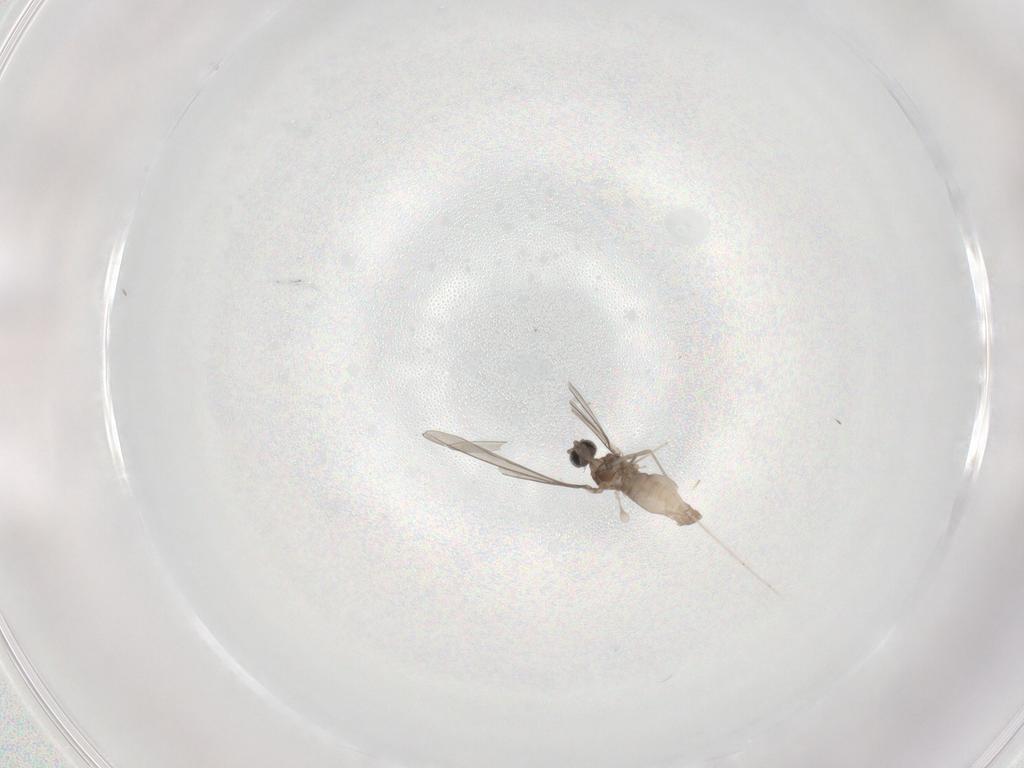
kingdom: Animalia
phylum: Arthropoda
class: Insecta
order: Diptera
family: Cecidomyiidae
